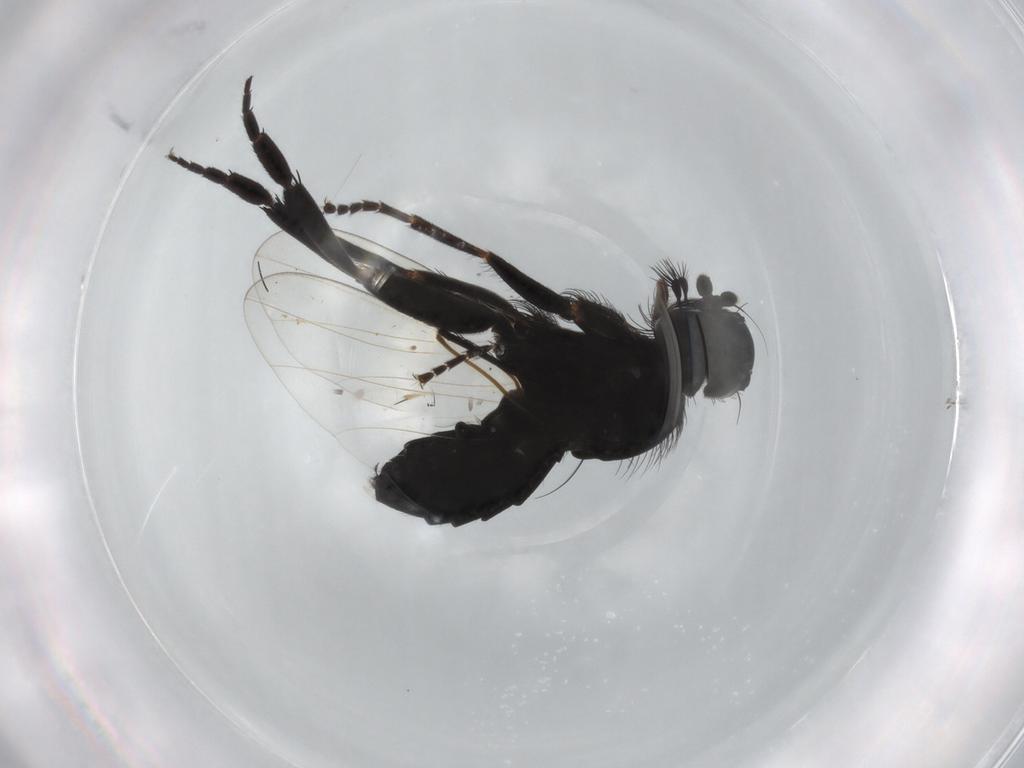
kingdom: Animalia
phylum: Arthropoda
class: Insecta
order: Diptera
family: Phoridae
